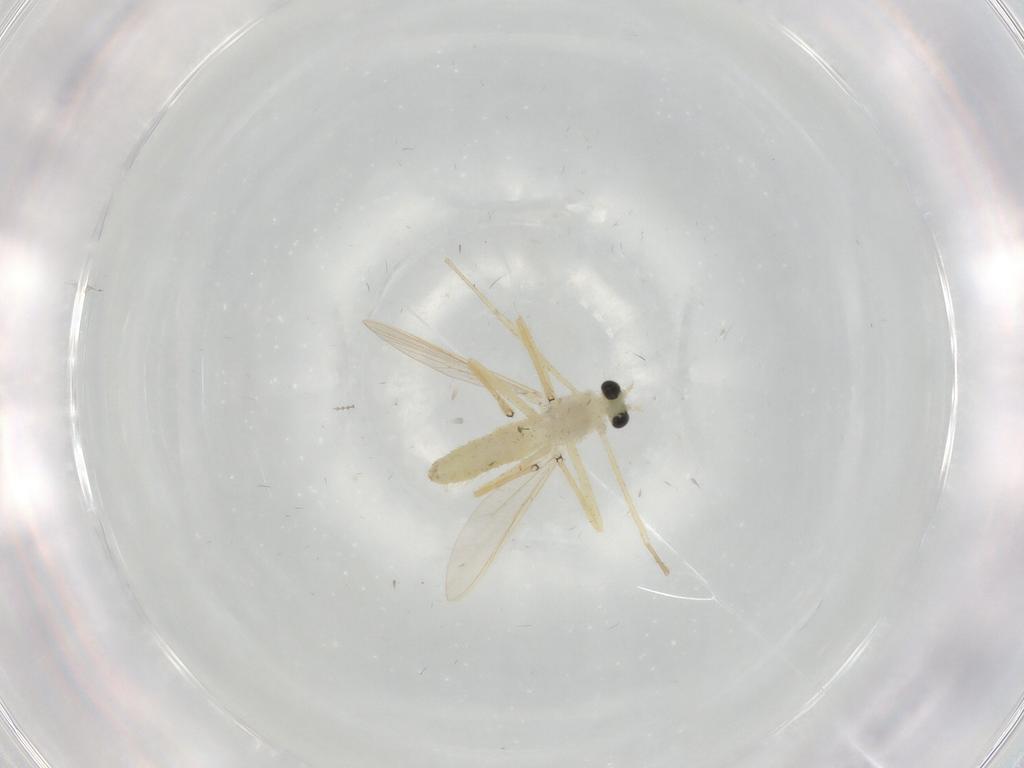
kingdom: Animalia
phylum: Arthropoda
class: Insecta
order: Diptera
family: Chironomidae
